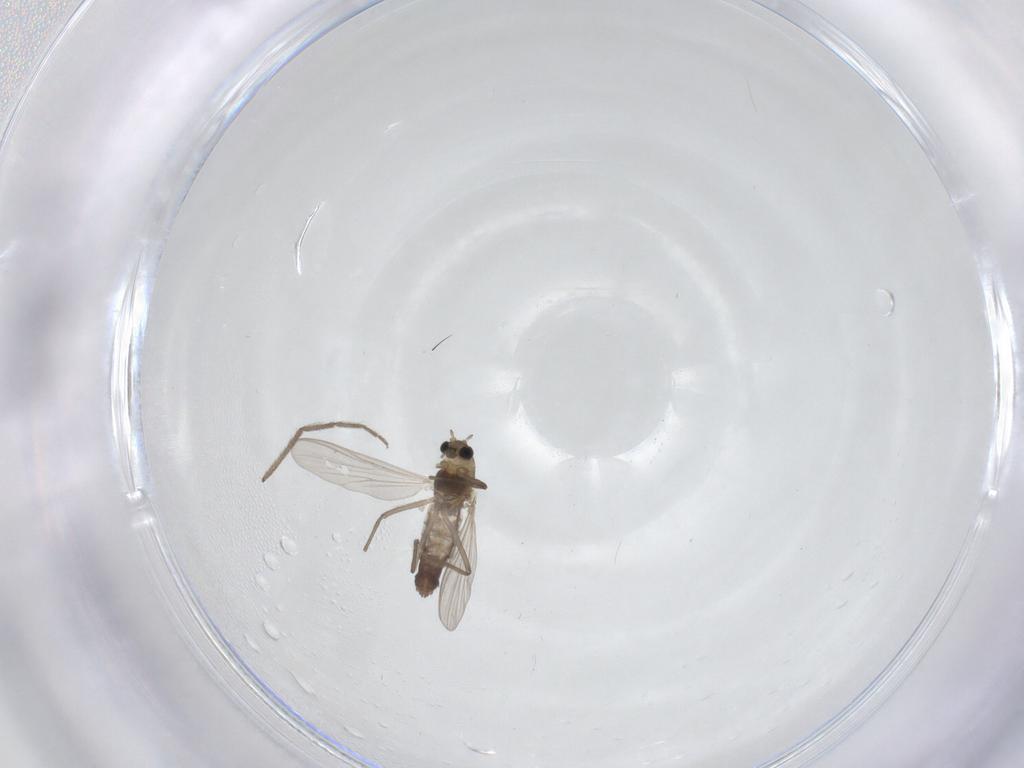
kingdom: Animalia
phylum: Arthropoda
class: Insecta
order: Diptera
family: Chironomidae
